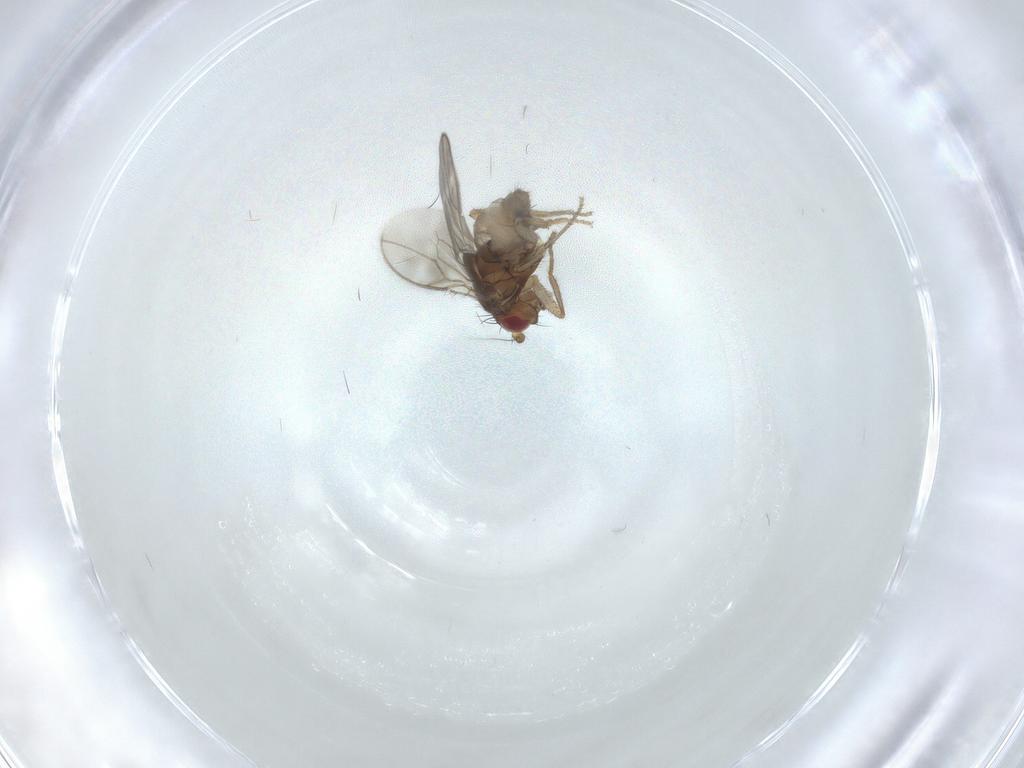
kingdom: Animalia
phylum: Arthropoda
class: Insecta
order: Diptera
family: Sphaeroceridae
